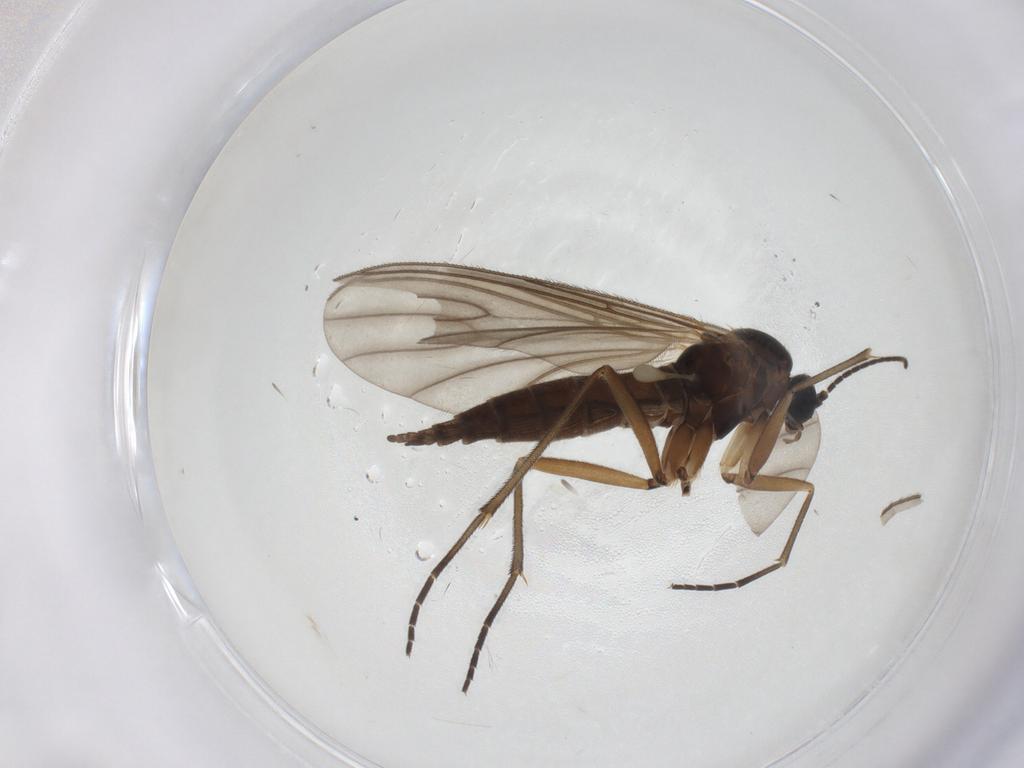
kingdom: Animalia
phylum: Arthropoda
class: Insecta
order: Diptera
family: Sciaridae
